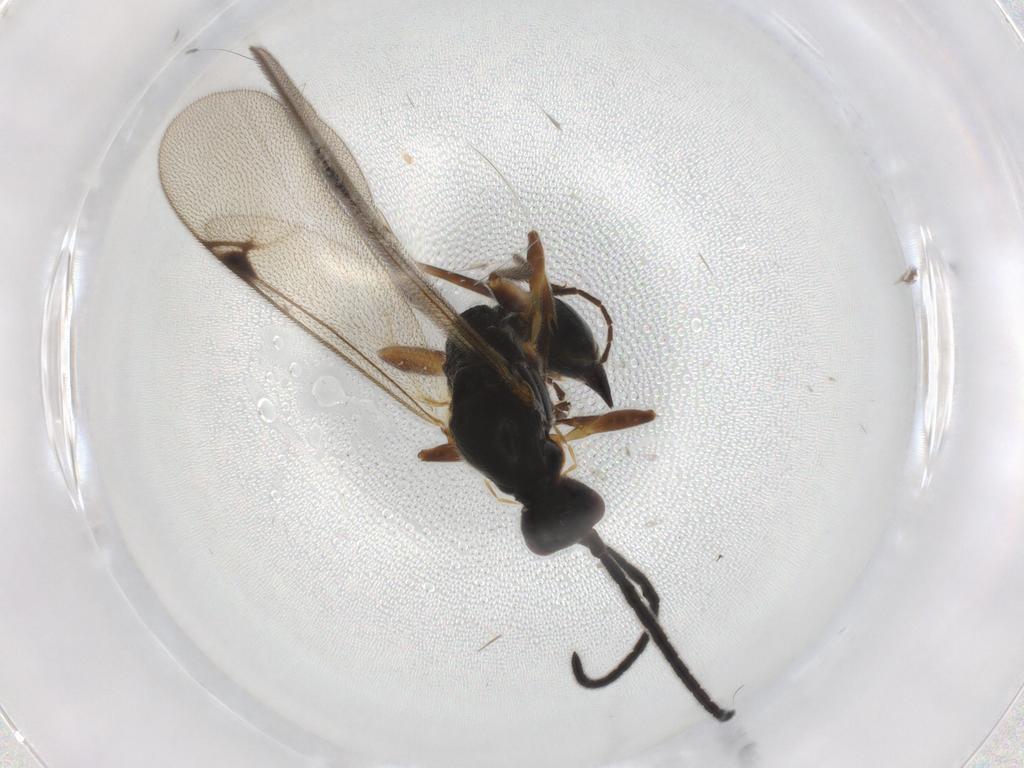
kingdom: Animalia
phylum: Arthropoda
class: Insecta
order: Hymenoptera
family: Proctotrupidae
